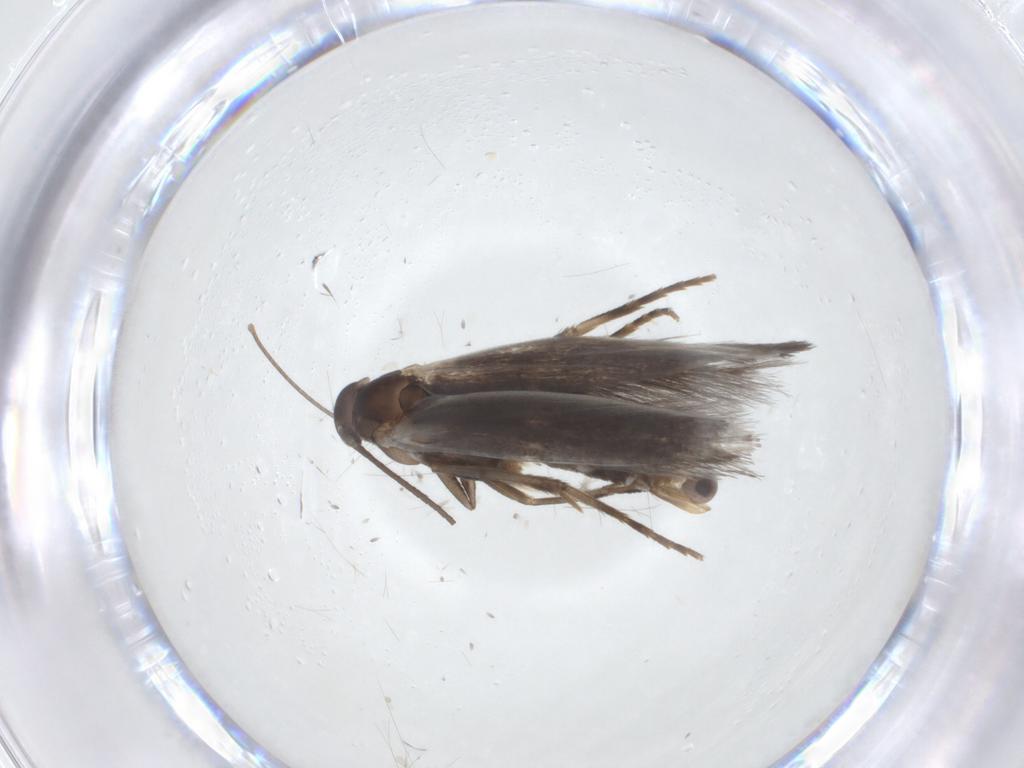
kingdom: Animalia
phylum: Arthropoda
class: Insecta
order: Lepidoptera
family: Elachistidae
